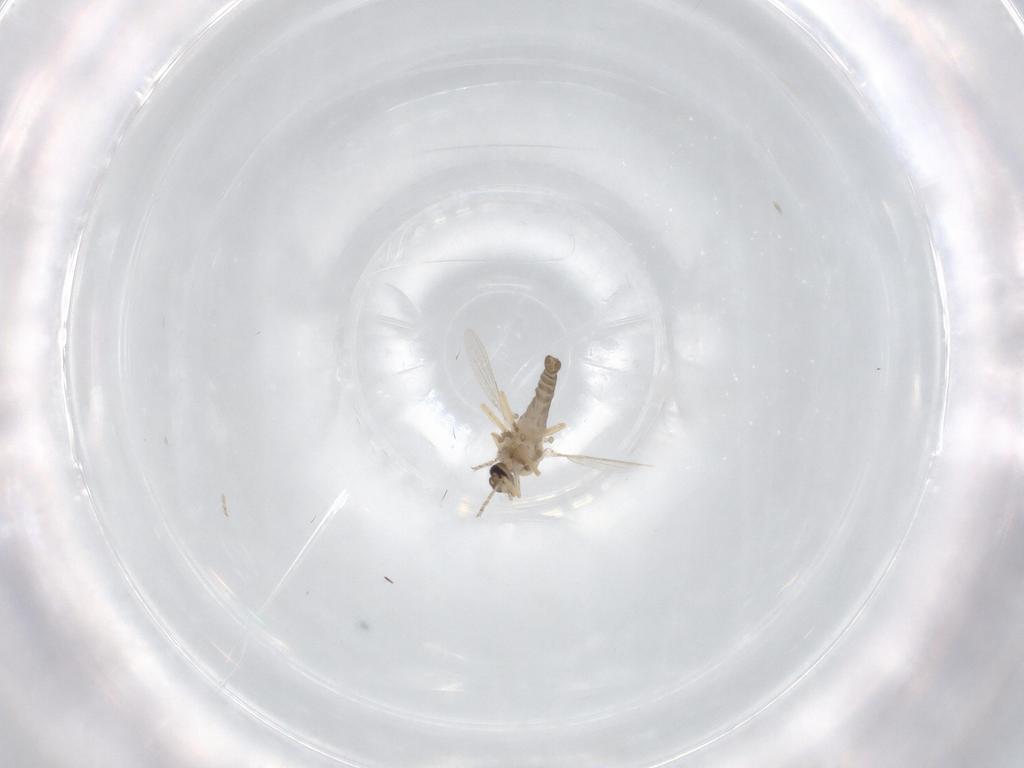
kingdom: Animalia
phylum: Arthropoda
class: Insecta
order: Diptera
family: Ceratopogonidae
